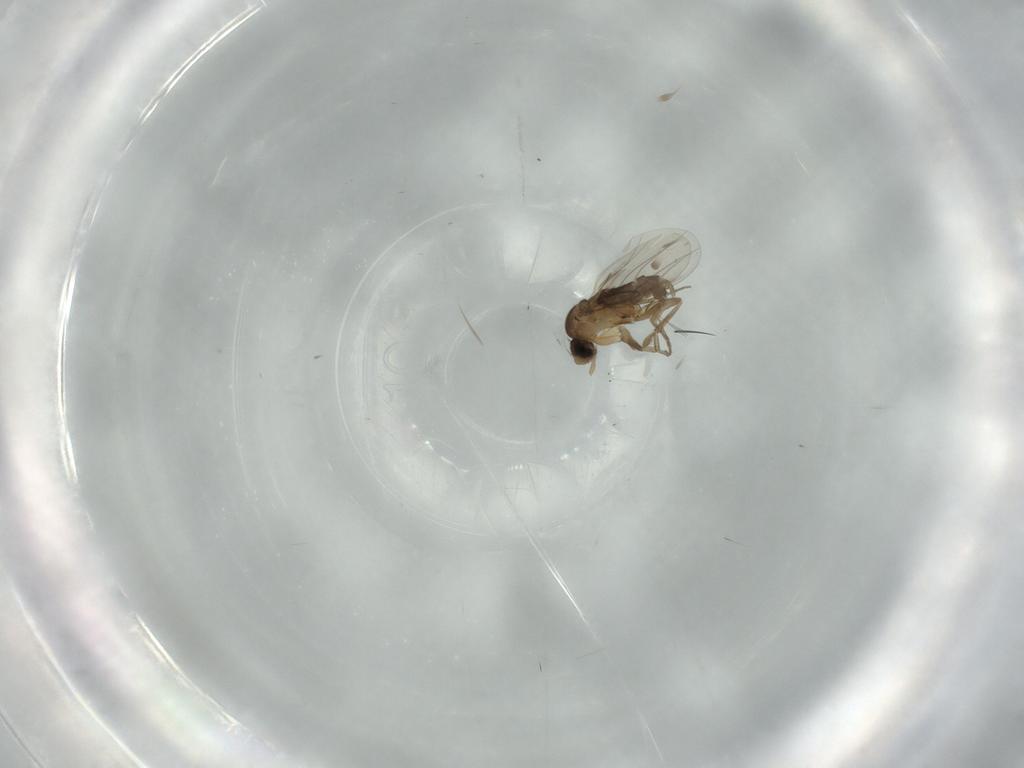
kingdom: Animalia
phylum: Arthropoda
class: Insecta
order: Diptera
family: Phoridae
